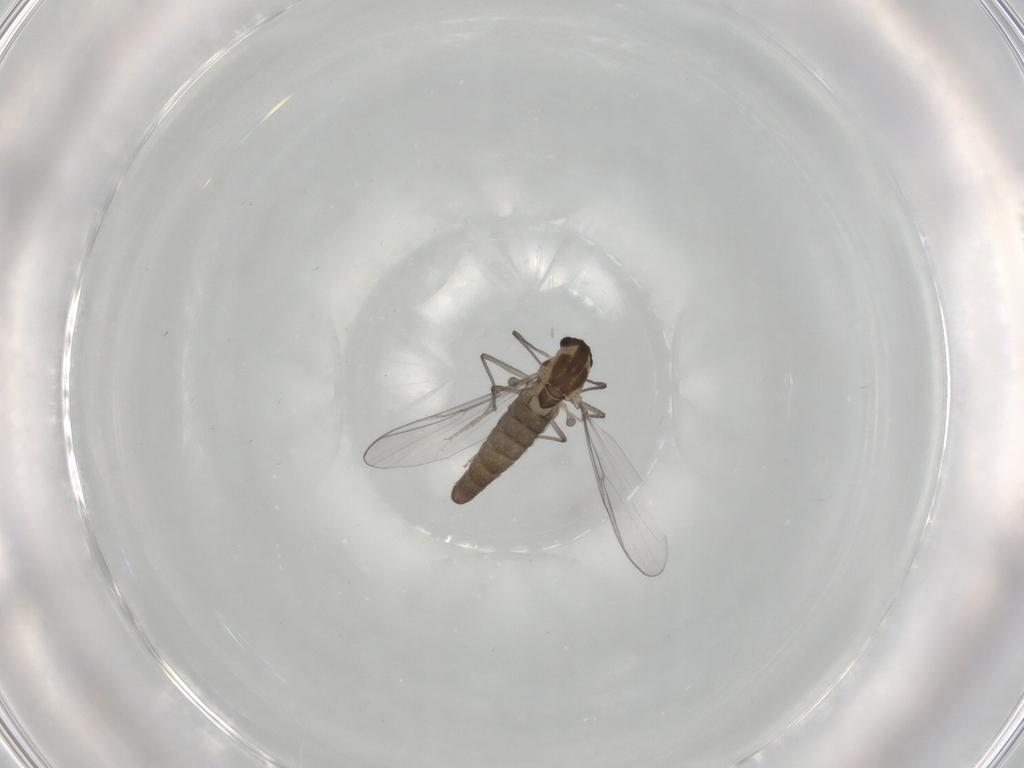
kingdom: Animalia
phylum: Arthropoda
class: Insecta
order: Diptera
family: Chironomidae
